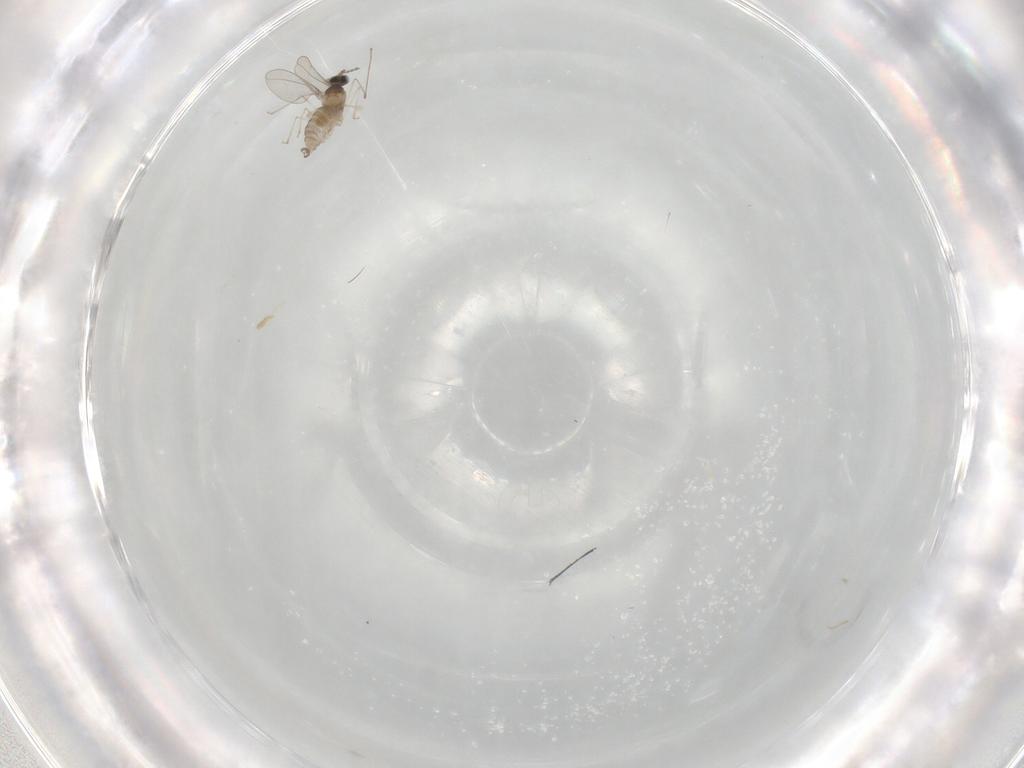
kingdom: Animalia
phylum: Arthropoda
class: Insecta
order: Diptera
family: Cecidomyiidae
